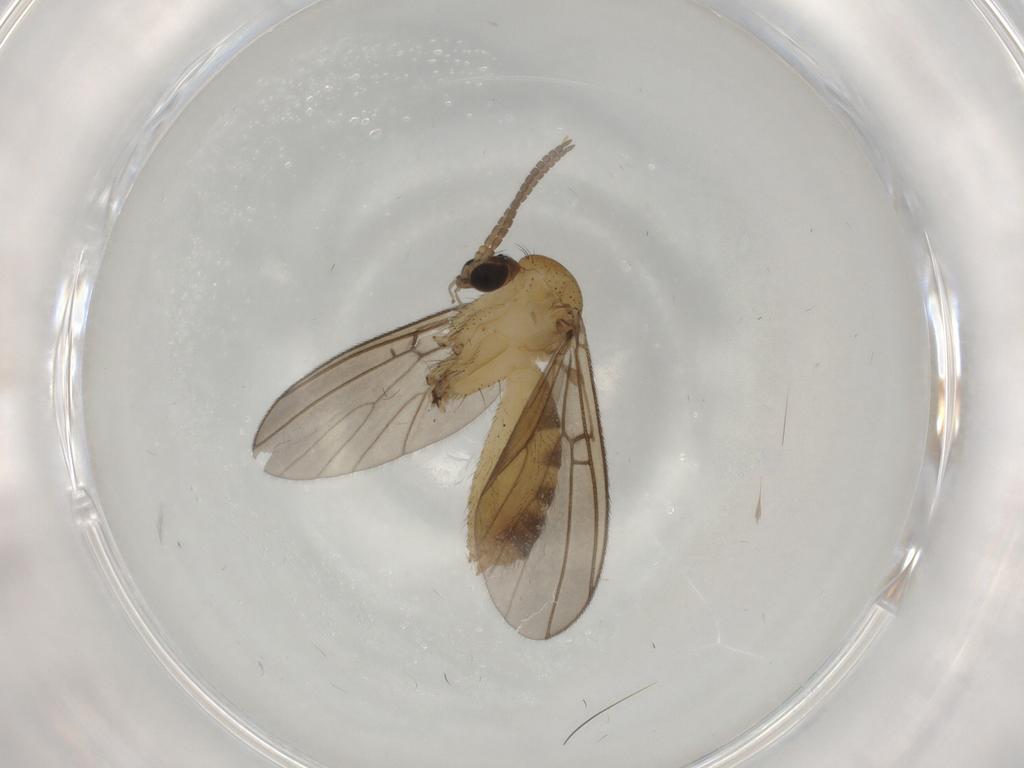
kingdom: Animalia
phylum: Arthropoda
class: Insecta
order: Diptera
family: Mycetophilidae
